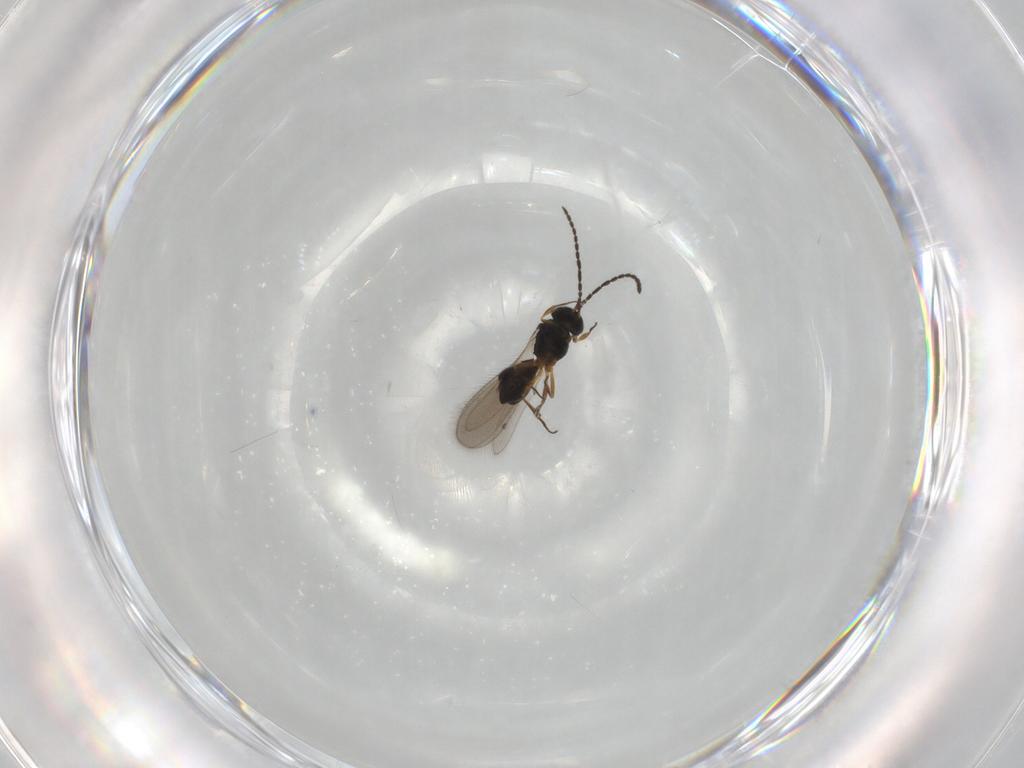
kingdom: Animalia
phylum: Arthropoda
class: Insecta
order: Hymenoptera
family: Scelionidae
